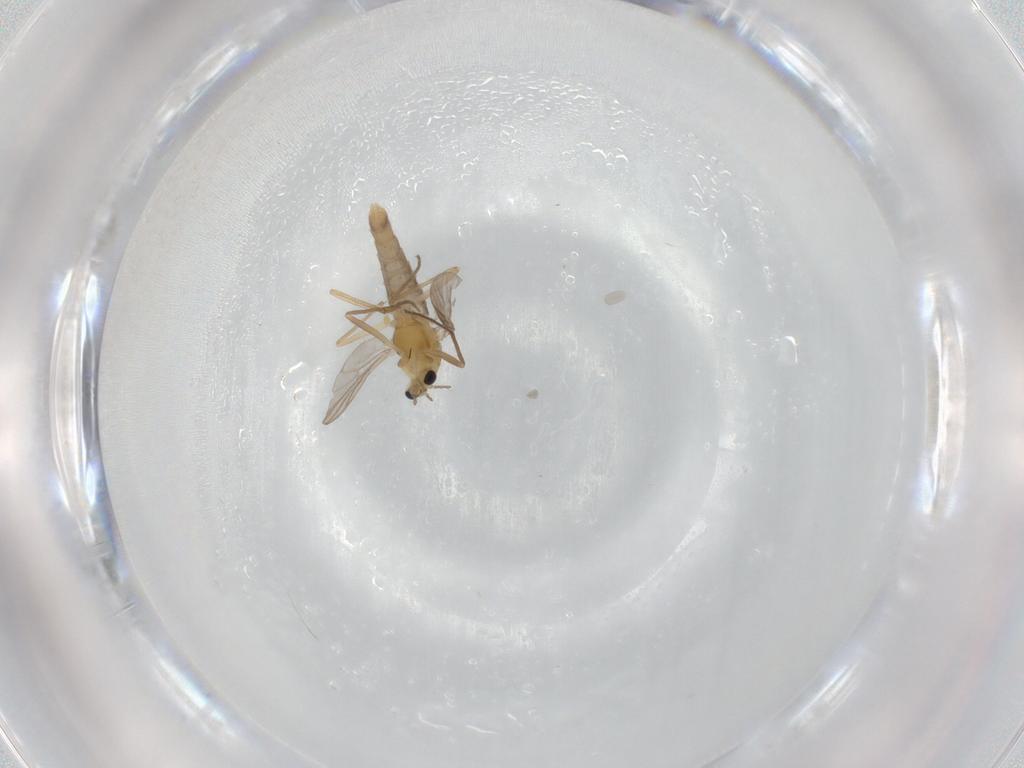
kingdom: Animalia
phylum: Arthropoda
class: Insecta
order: Diptera
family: Chironomidae
